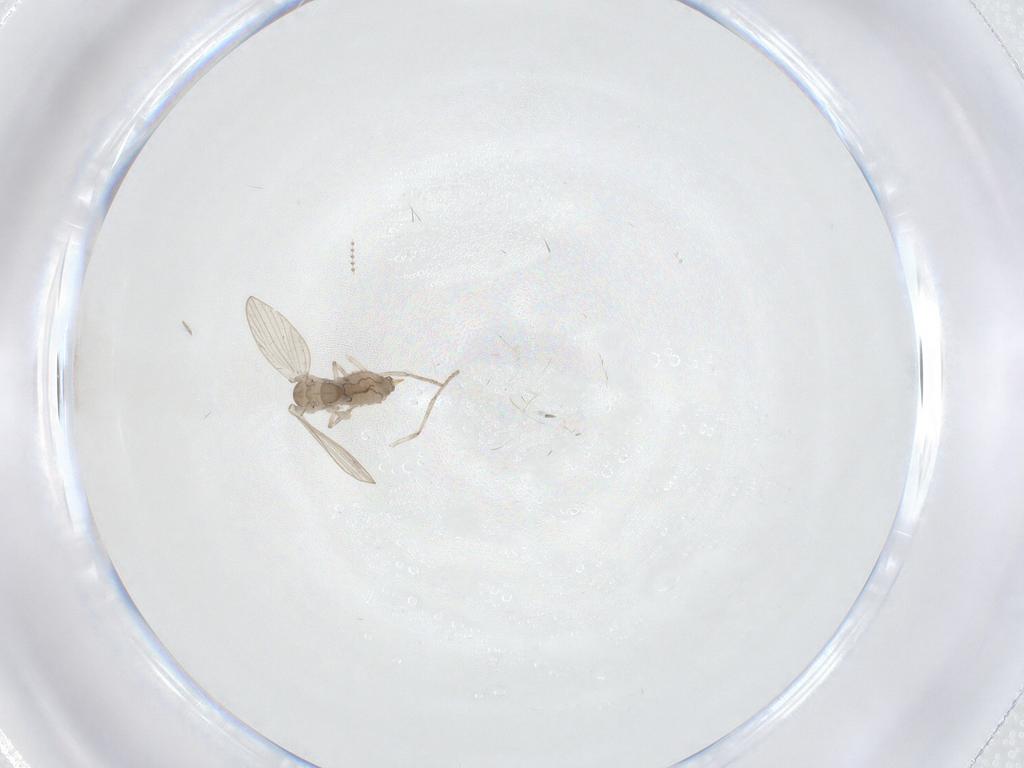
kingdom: Animalia
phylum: Arthropoda
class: Insecta
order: Diptera
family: Psychodidae
